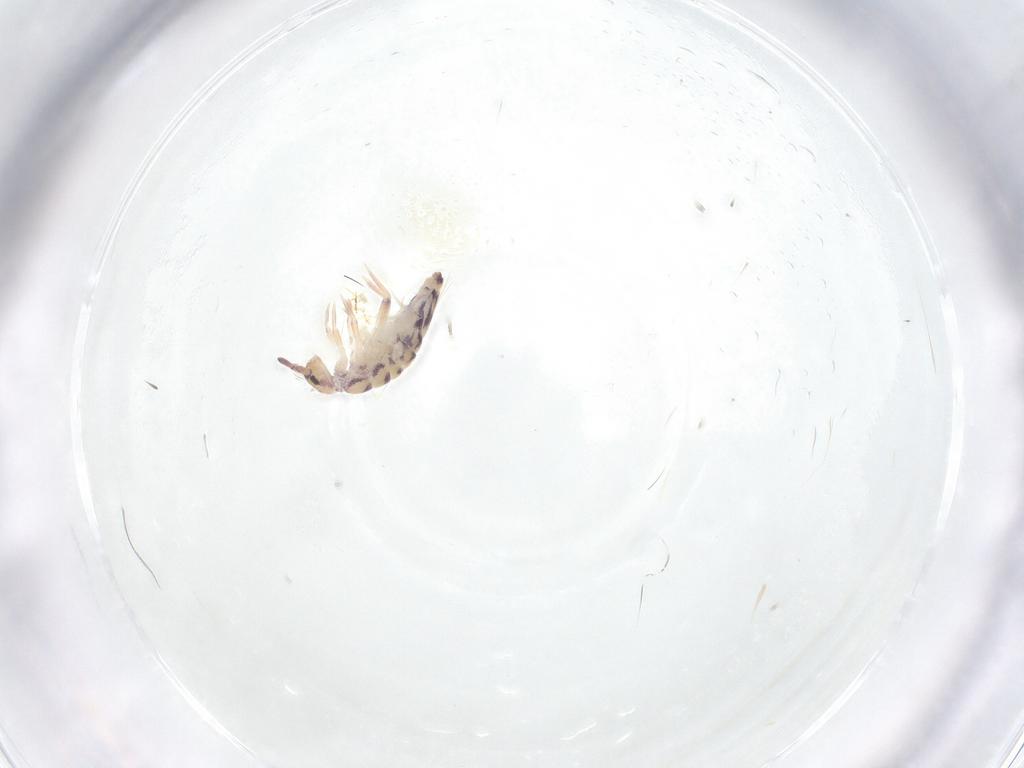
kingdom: Animalia
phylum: Arthropoda
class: Collembola
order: Entomobryomorpha
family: Entomobryidae
